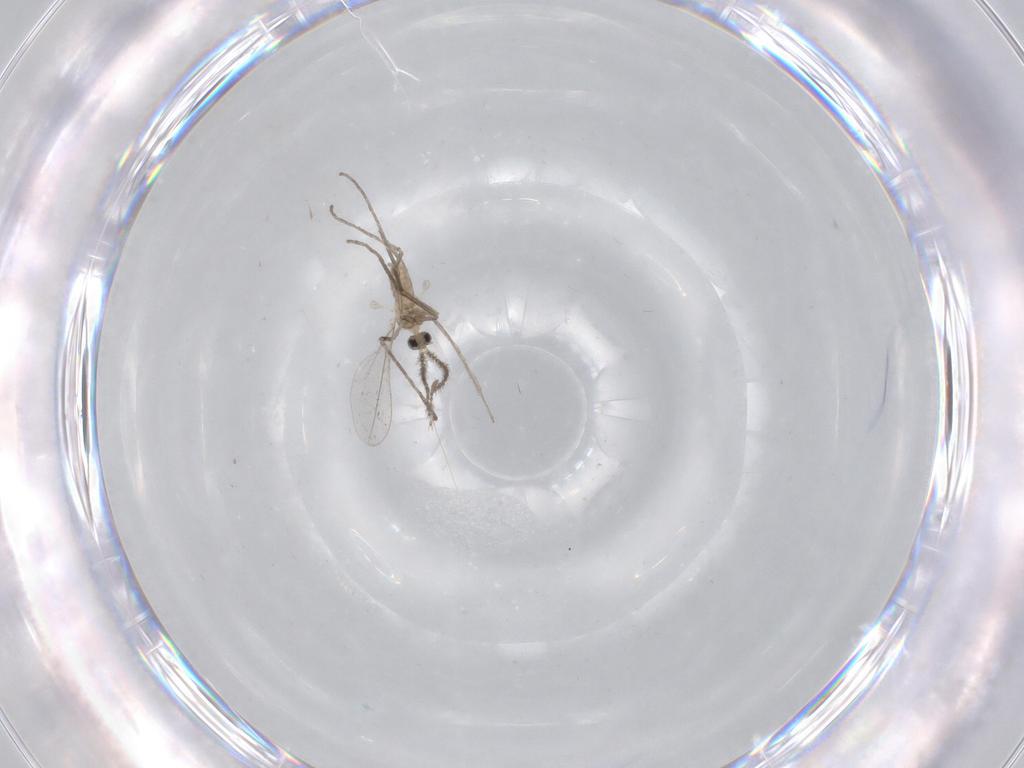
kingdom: Animalia
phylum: Arthropoda
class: Insecta
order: Diptera
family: Cecidomyiidae
